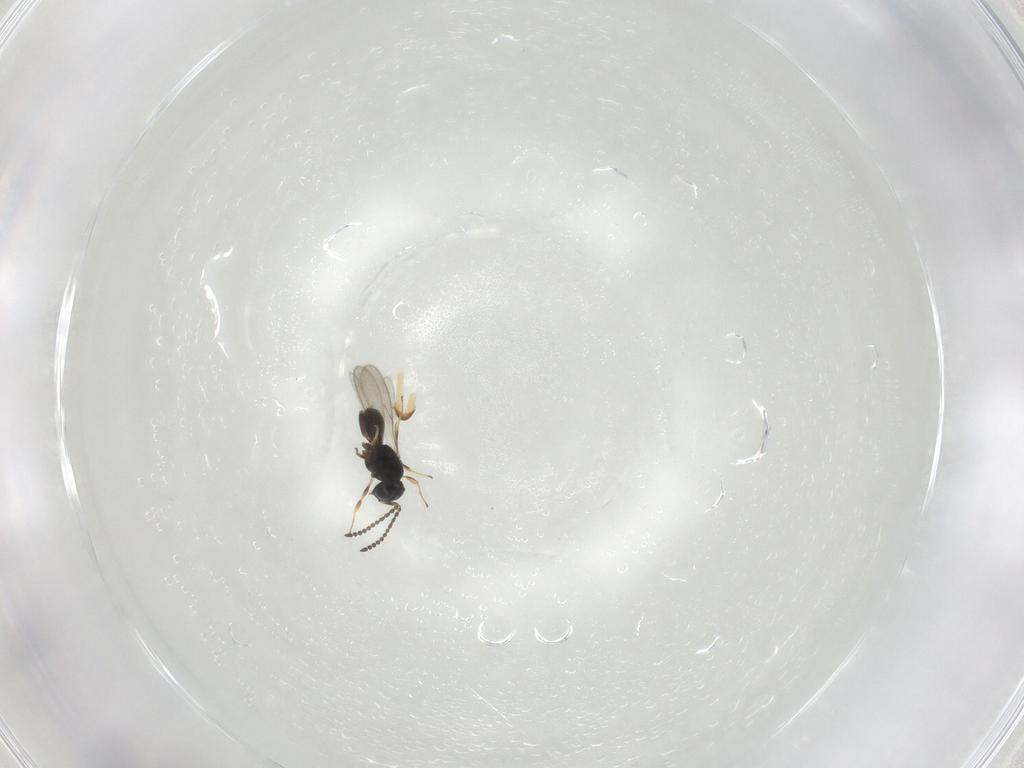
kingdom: Animalia
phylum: Arthropoda
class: Insecta
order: Hymenoptera
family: Scelionidae
